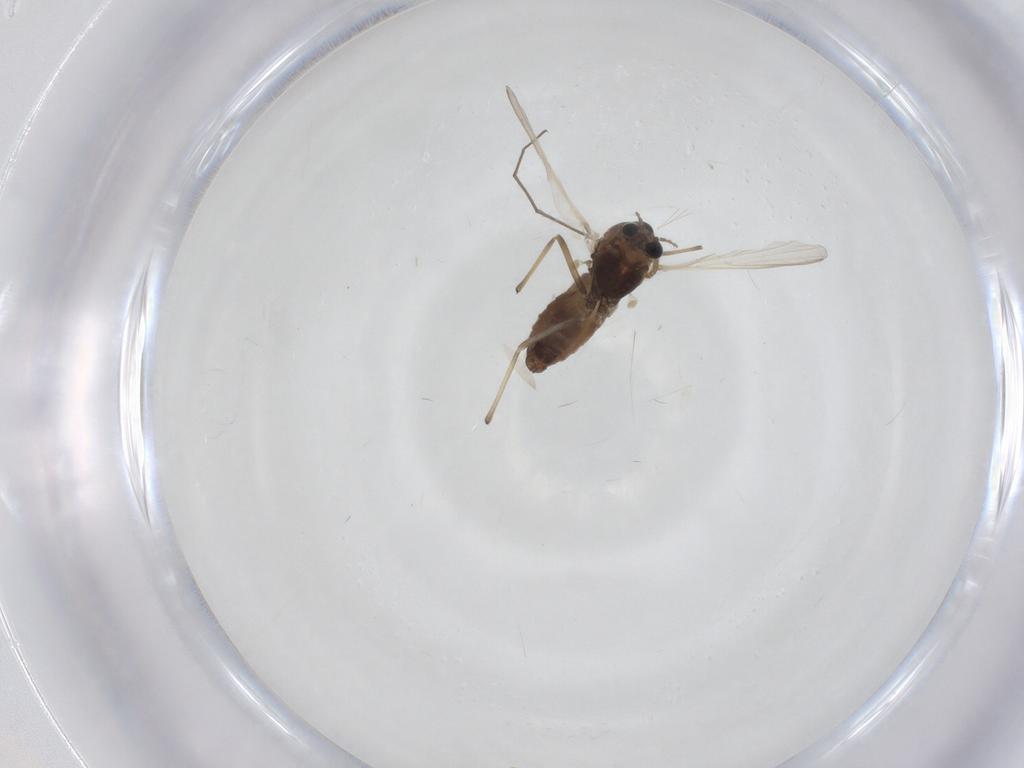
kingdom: Animalia
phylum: Arthropoda
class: Insecta
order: Diptera
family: Chironomidae
